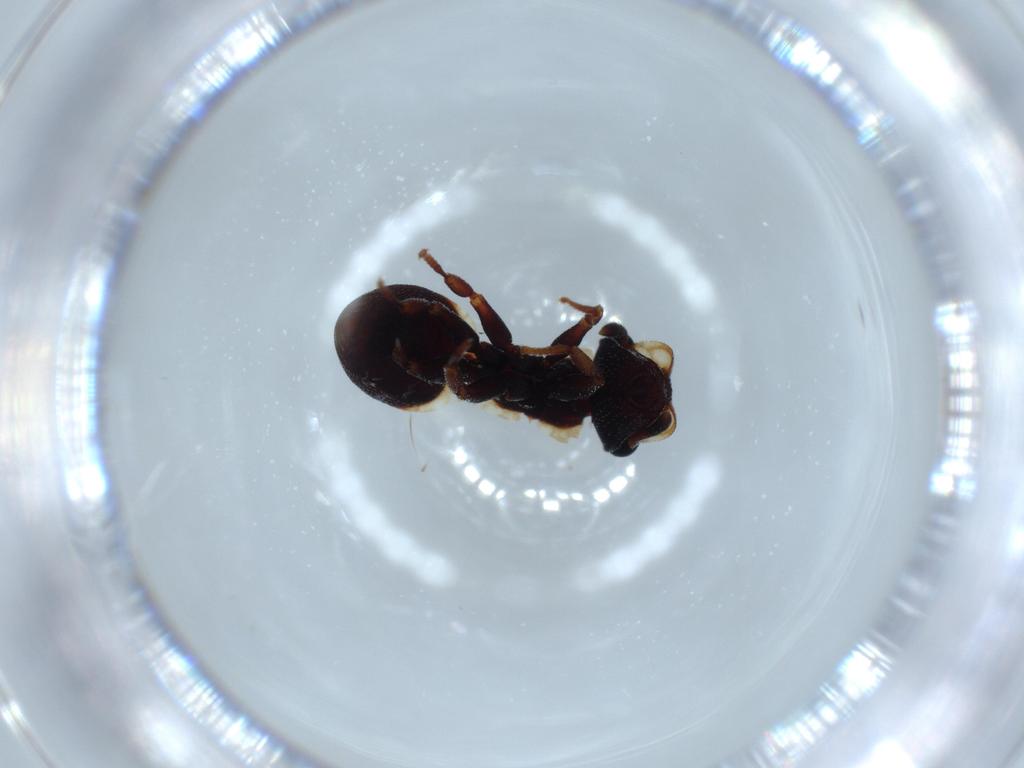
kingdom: Animalia
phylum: Arthropoda
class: Insecta
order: Hymenoptera
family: Formicidae
